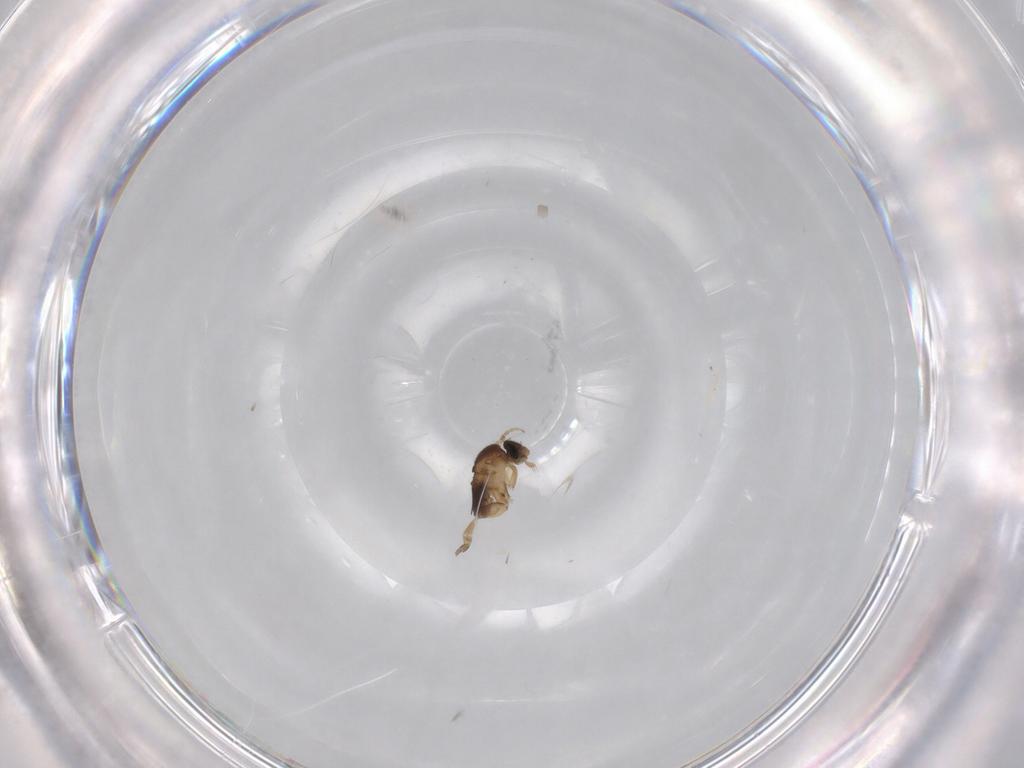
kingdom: Animalia
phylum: Arthropoda
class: Insecta
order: Diptera
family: Phoridae
